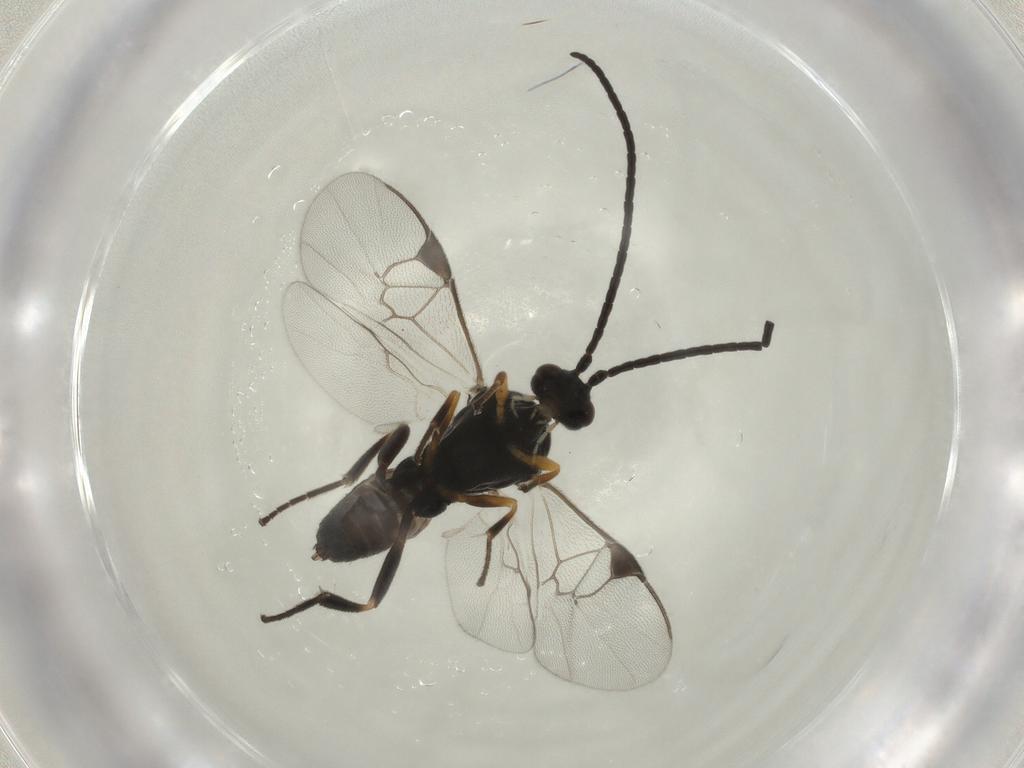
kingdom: Animalia
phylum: Arthropoda
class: Insecta
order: Hymenoptera
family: Braconidae
